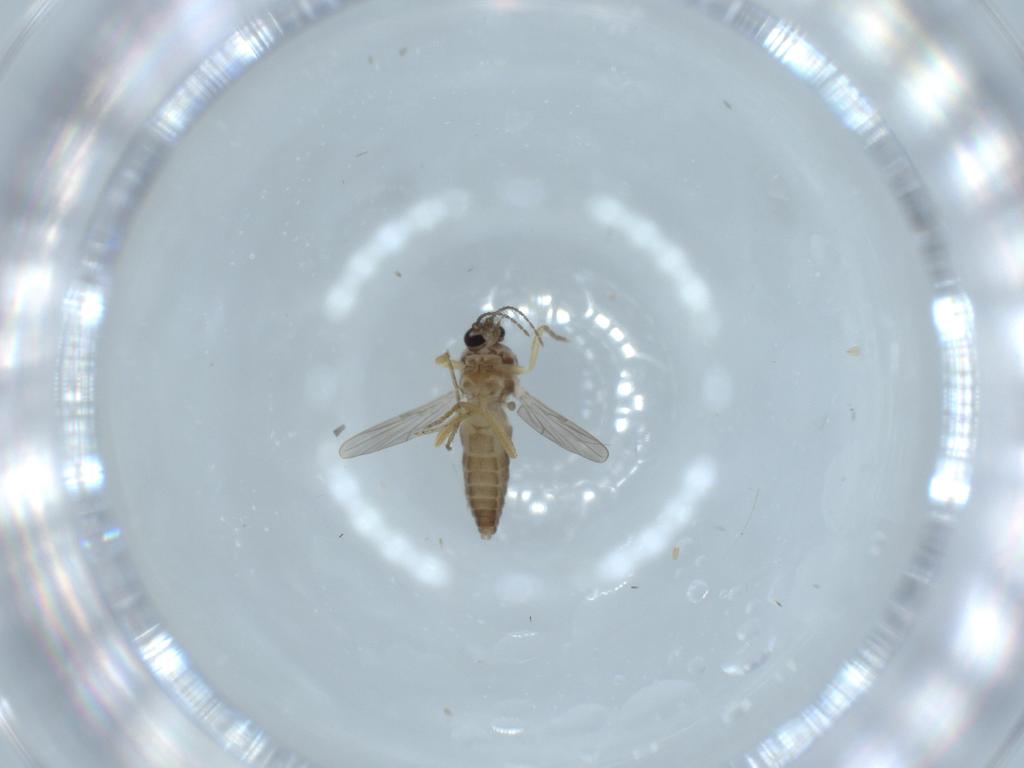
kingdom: Animalia
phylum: Arthropoda
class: Insecta
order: Diptera
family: Ceratopogonidae
